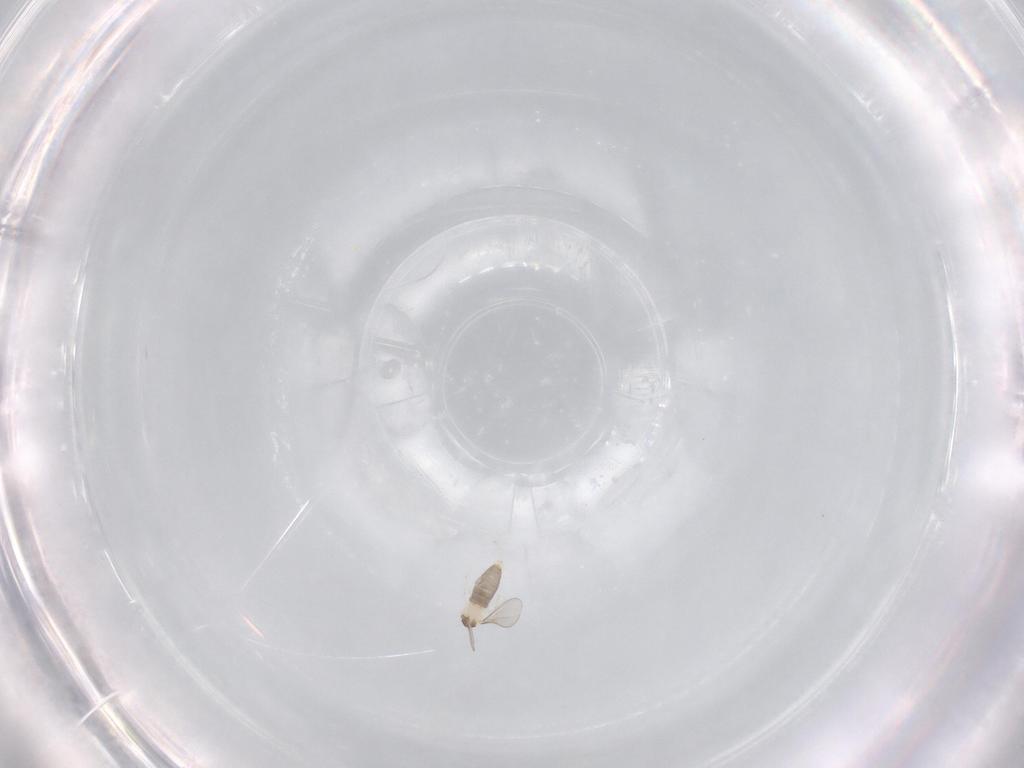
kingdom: Animalia
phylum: Arthropoda
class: Insecta
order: Diptera
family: Cecidomyiidae
